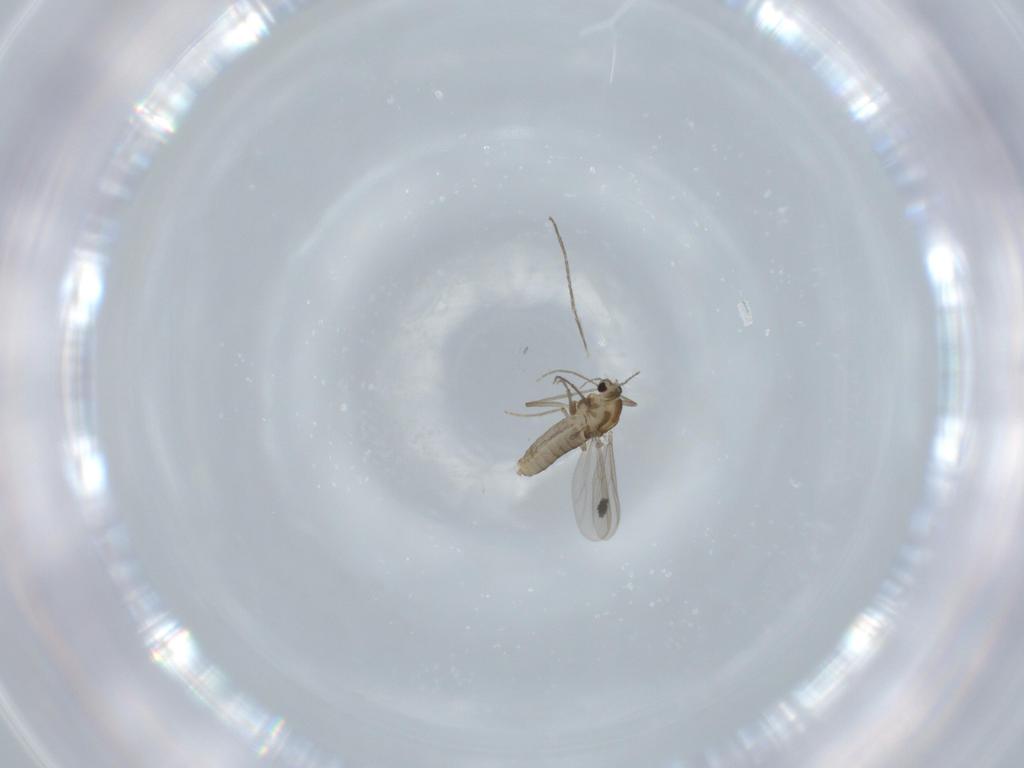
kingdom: Animalia
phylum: Arthropoda
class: Insecta
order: Diptera
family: Chironomidae
